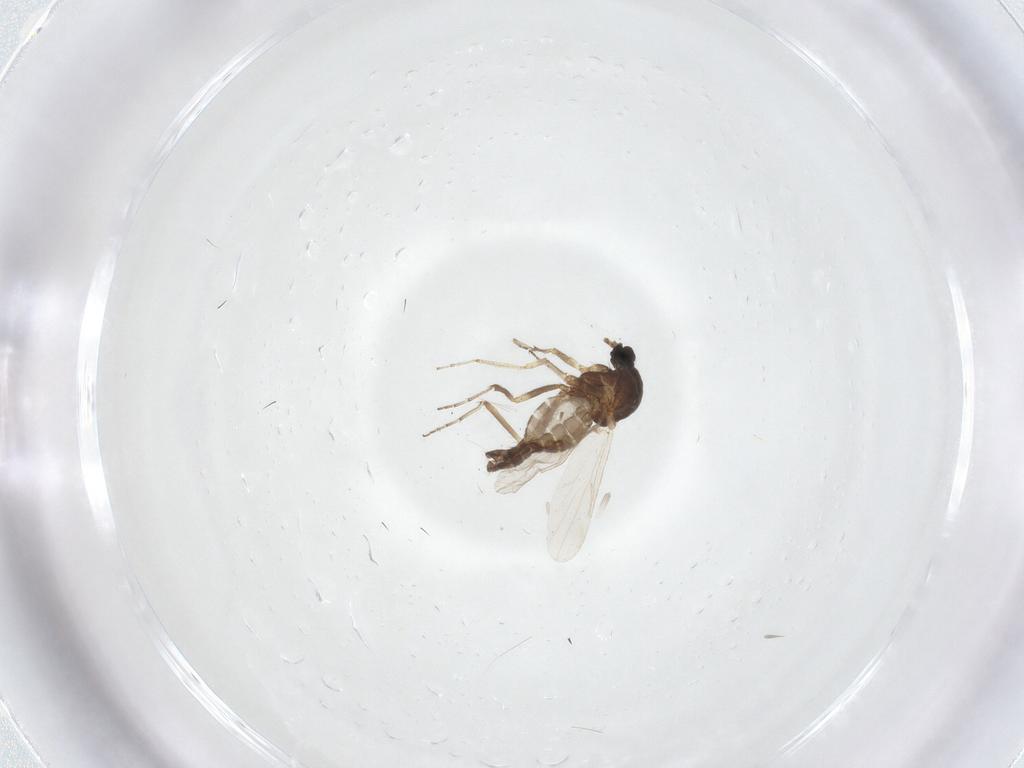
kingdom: Animalia
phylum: Arthropoda
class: Insecta
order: Diptera
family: Ceratopogonidae
